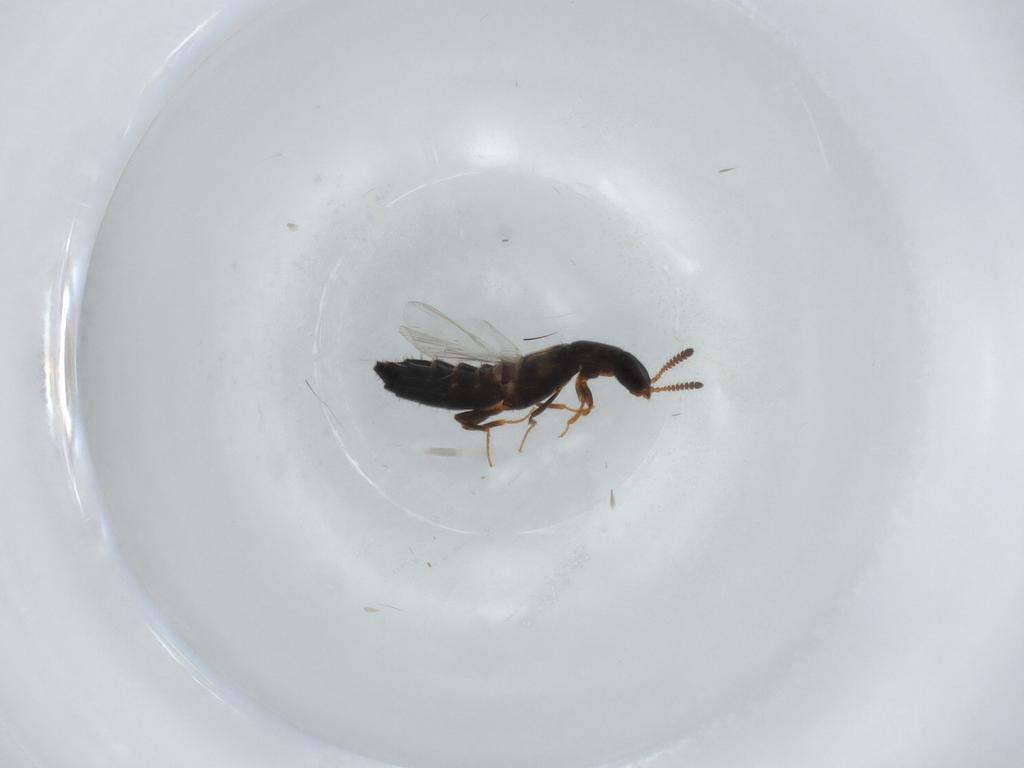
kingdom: Animalia
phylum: Arthropoda
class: Insecta
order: Coleoptera
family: Coccinellidae
